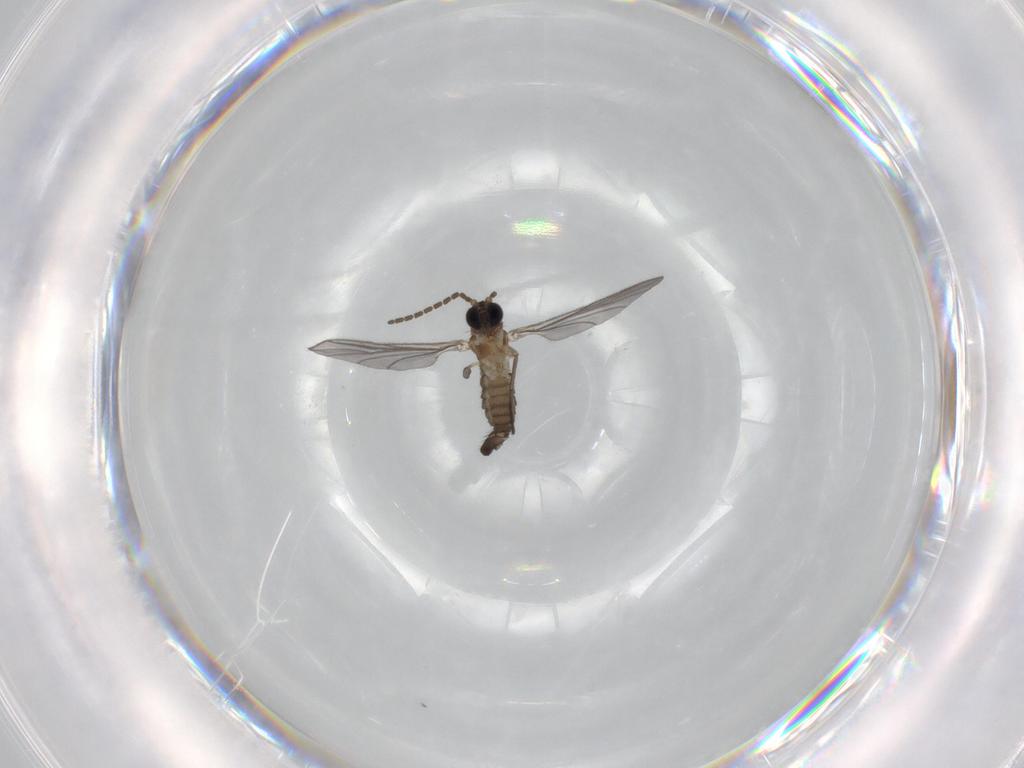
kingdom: Animalia
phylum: Arthropoda
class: Insecta
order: Diptera
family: Sciaridae
